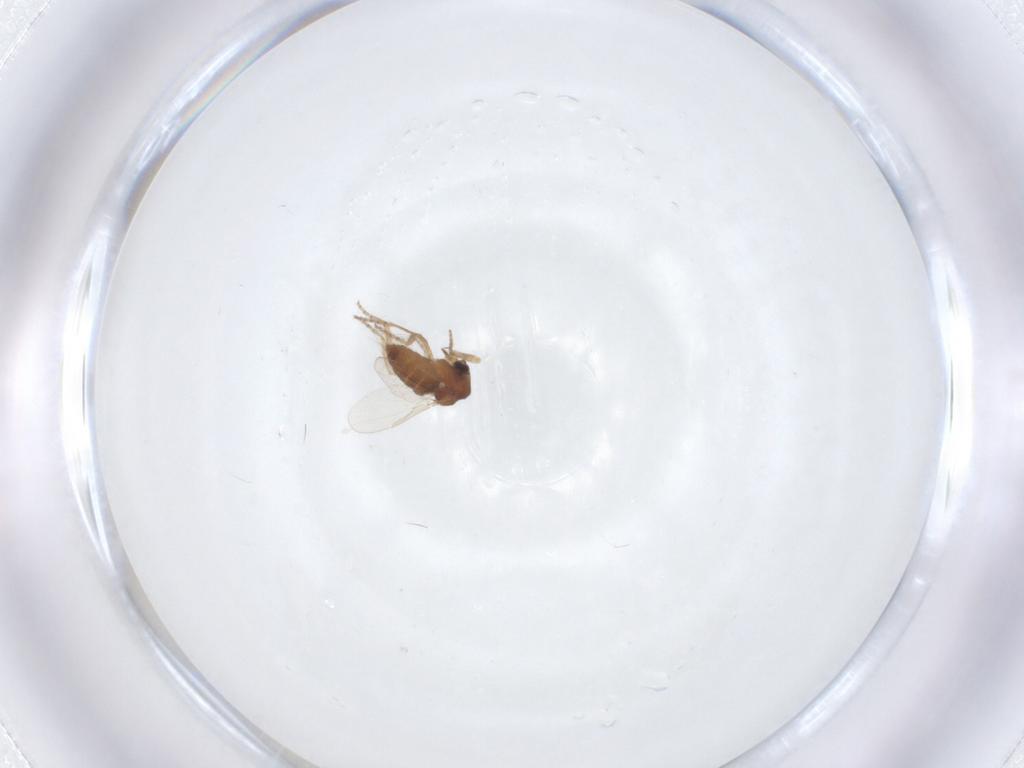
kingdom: Animalia
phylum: Arthropoda
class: Insecta
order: Diptera
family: Ceratopogonidae
